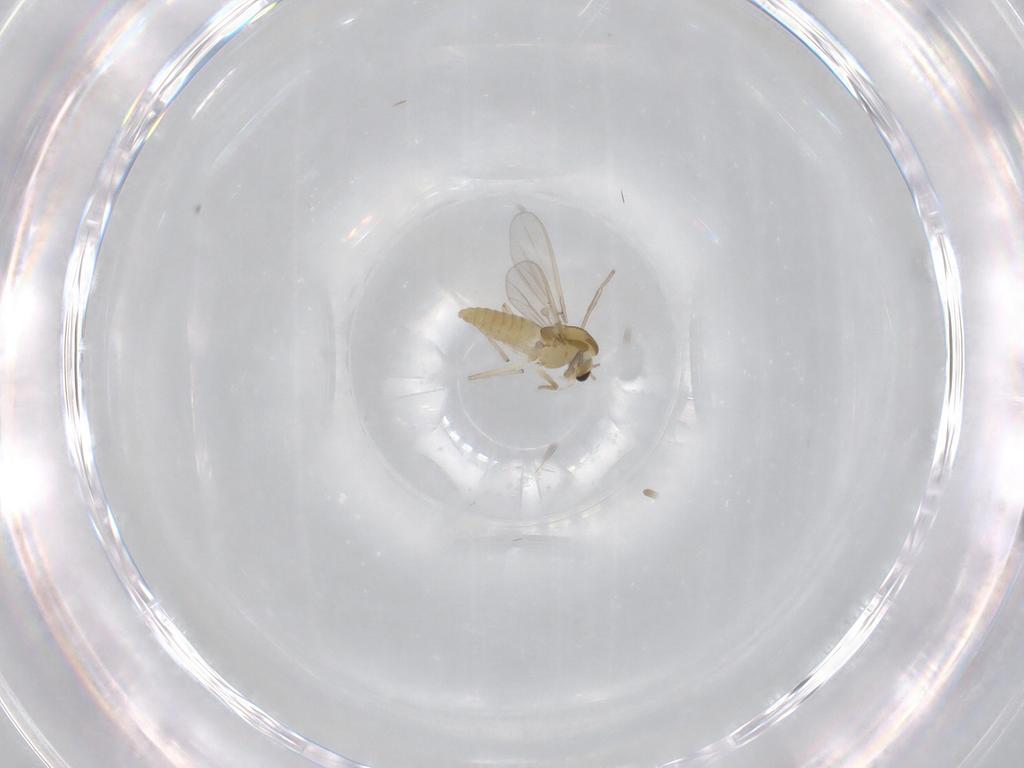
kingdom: Animalia
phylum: Arthropoda
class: Insecta
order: Diptera
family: Chironomidae
